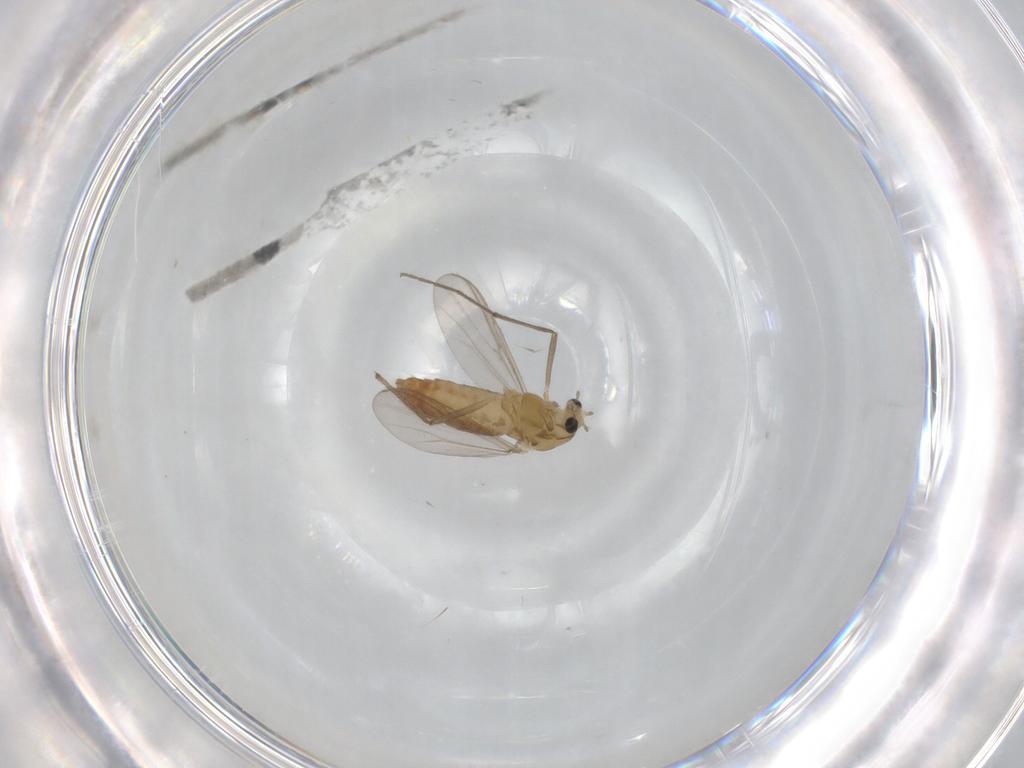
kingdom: Animalia
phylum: Arthropoda
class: Insecta
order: Diptera
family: Chironomidae
